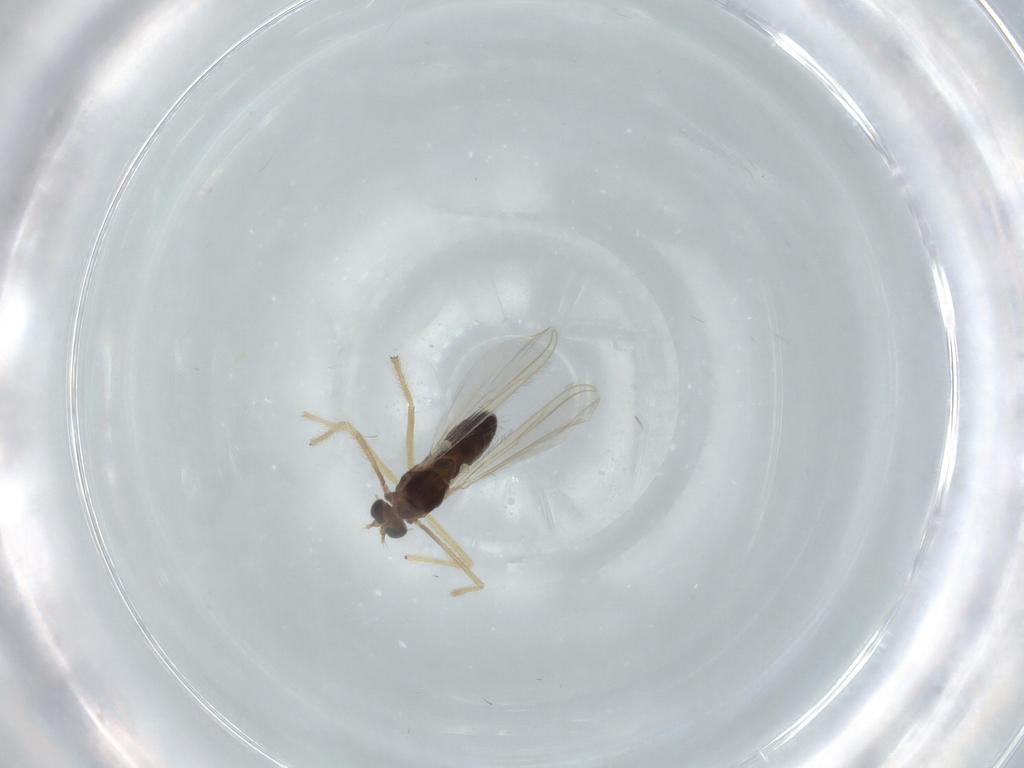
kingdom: Animalia
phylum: Arthropoda
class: Insecta
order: Diptera
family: Chironomidae
